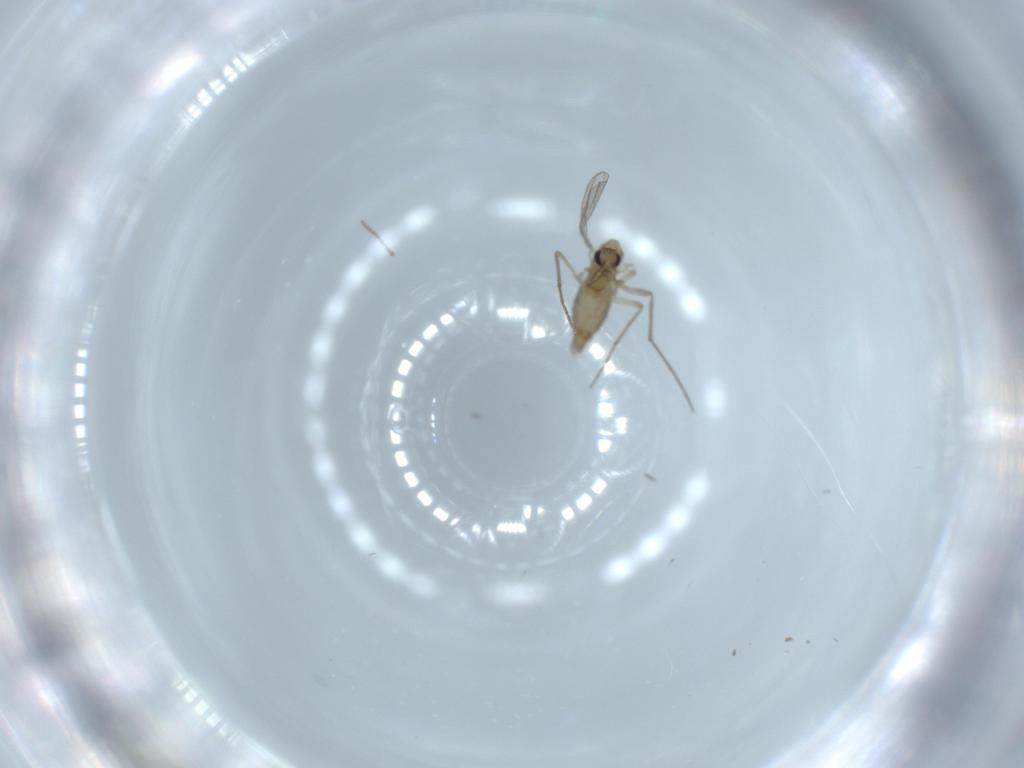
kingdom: Animalia
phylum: Arthropoda
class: Insecta
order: Diptera
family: Chironomidae
